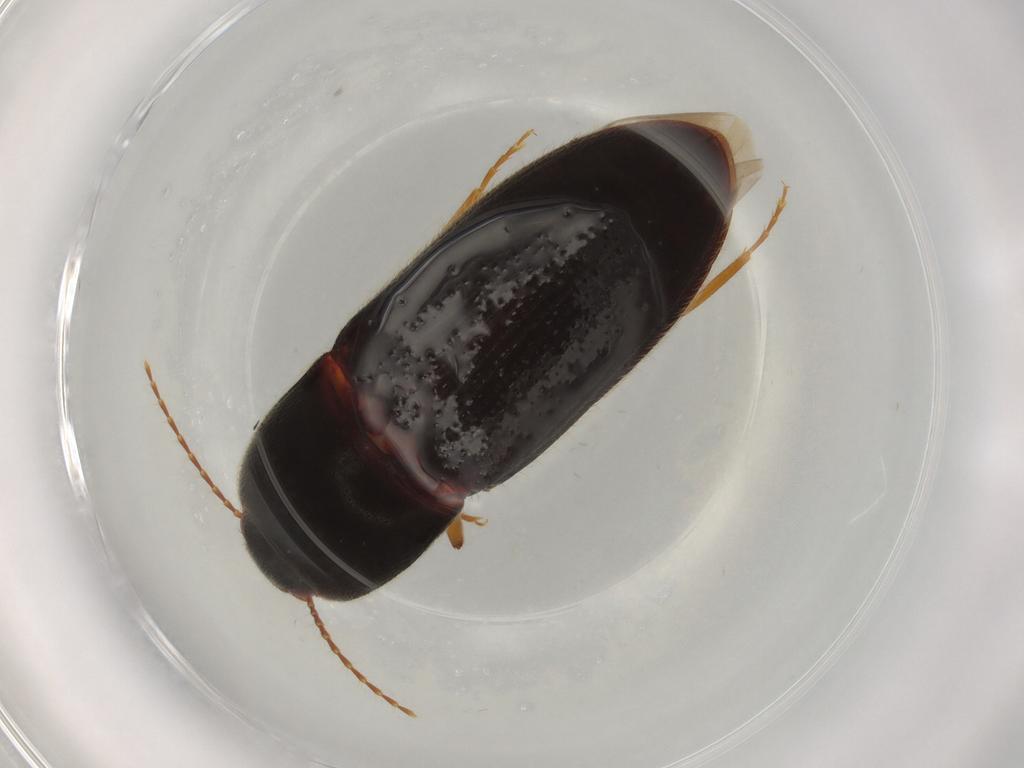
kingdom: Animalia
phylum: Arthropoda
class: Insecta
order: Coleoptera
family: Elateridae
